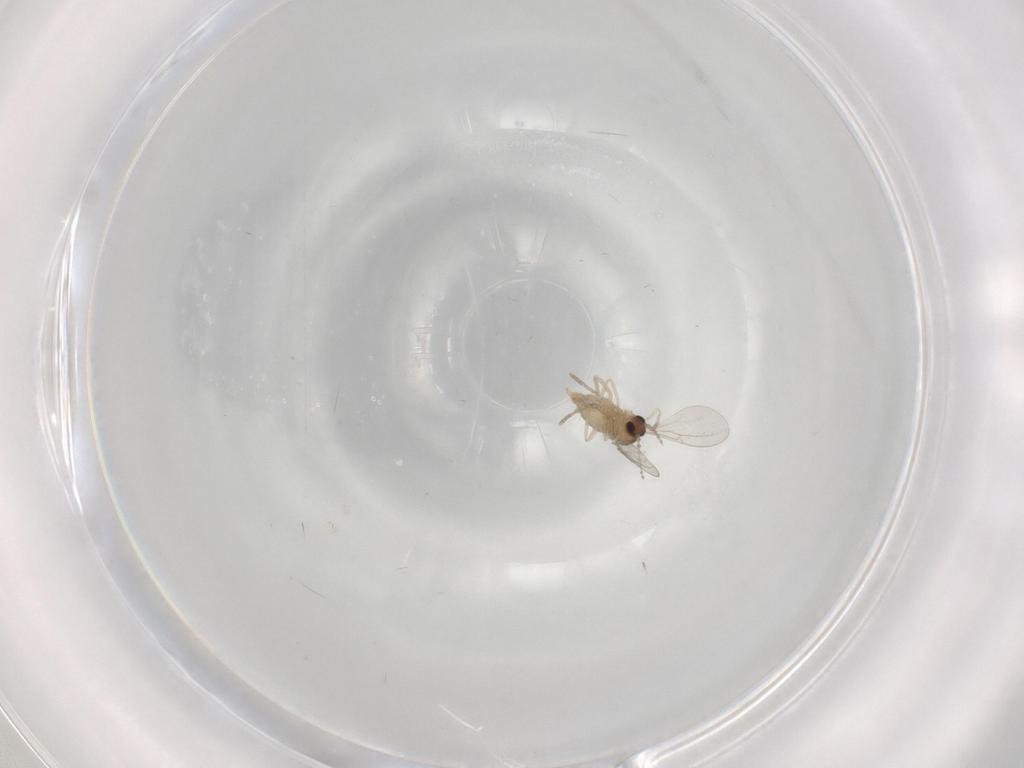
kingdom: Animalia
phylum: Arthropoda
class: Insecta
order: Diptera
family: Cecidomyiidae
